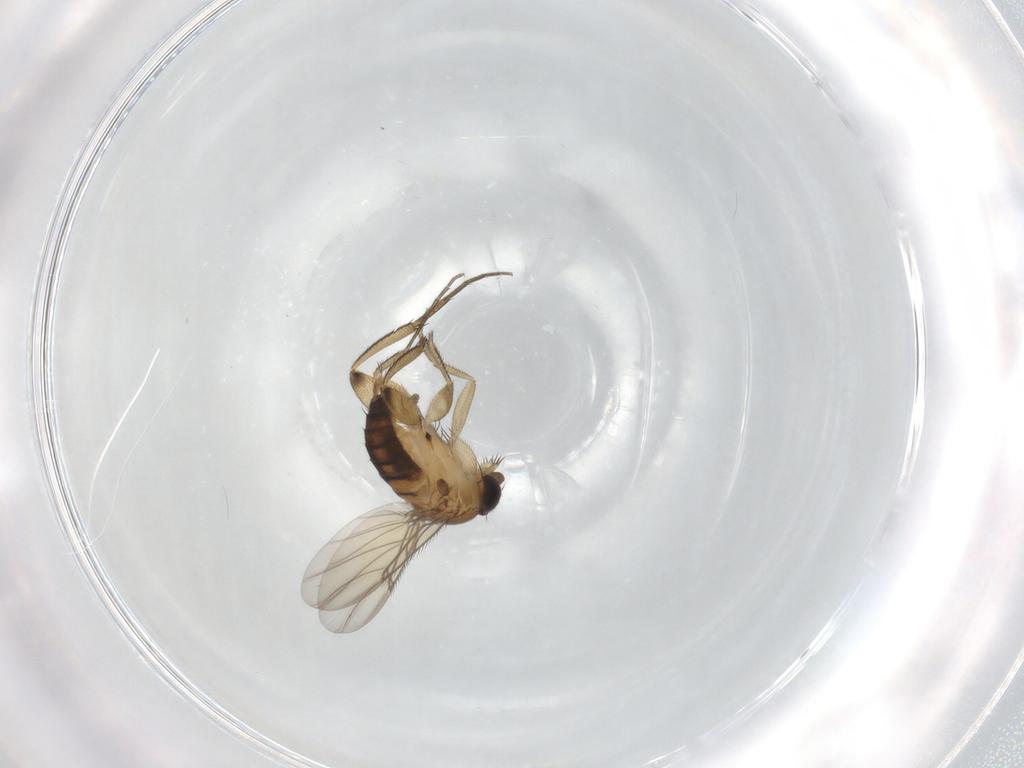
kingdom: Animalia
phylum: Arthropoda
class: Insecta
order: Diptera
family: Phoridae
